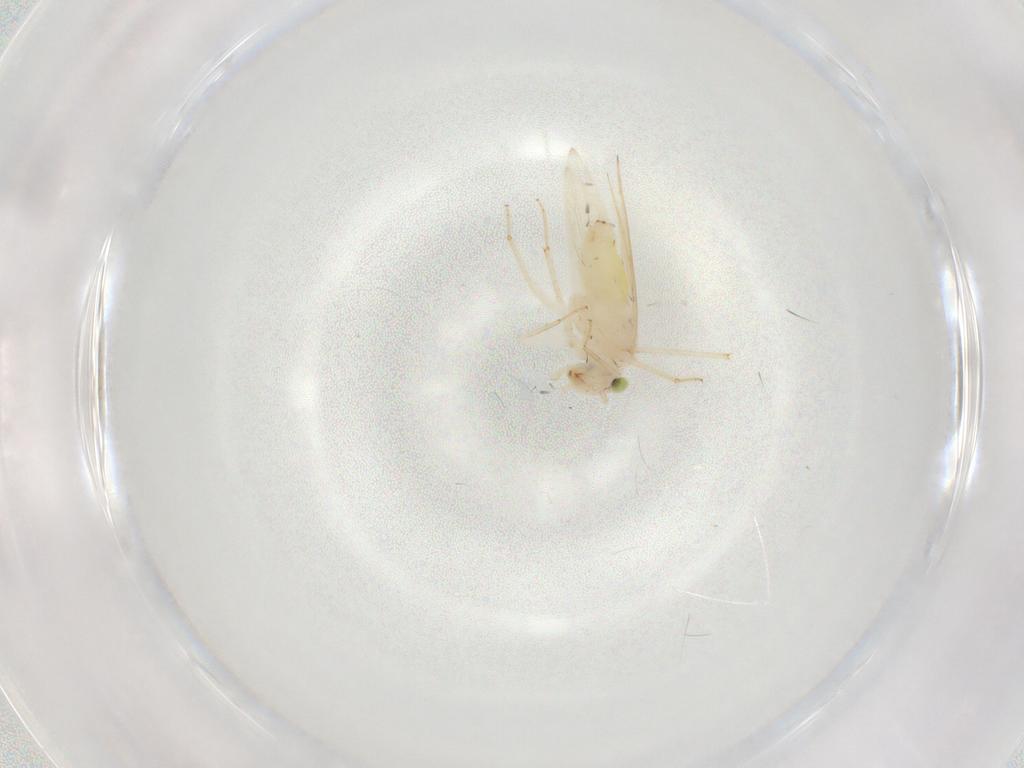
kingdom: Animalia
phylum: Arthropoda
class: Insecta
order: Psocodea
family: Lepidopsocidae
